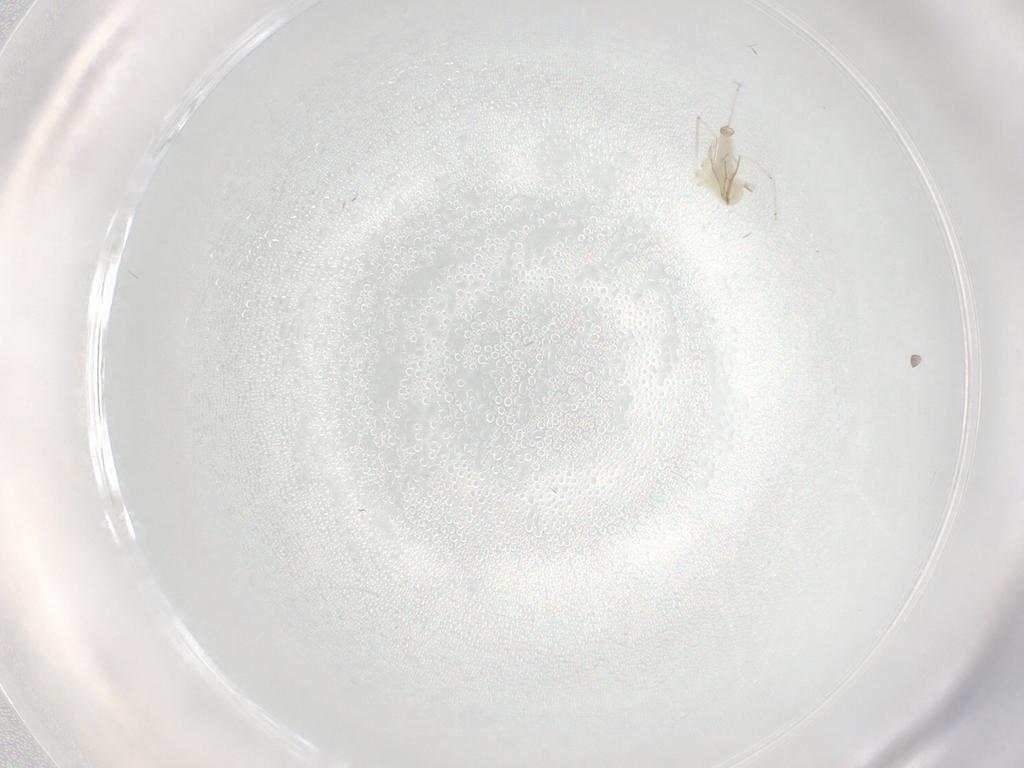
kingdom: Animalia
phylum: Arthropoda
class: Insecta
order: Diptera
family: Cecidomyiidae
